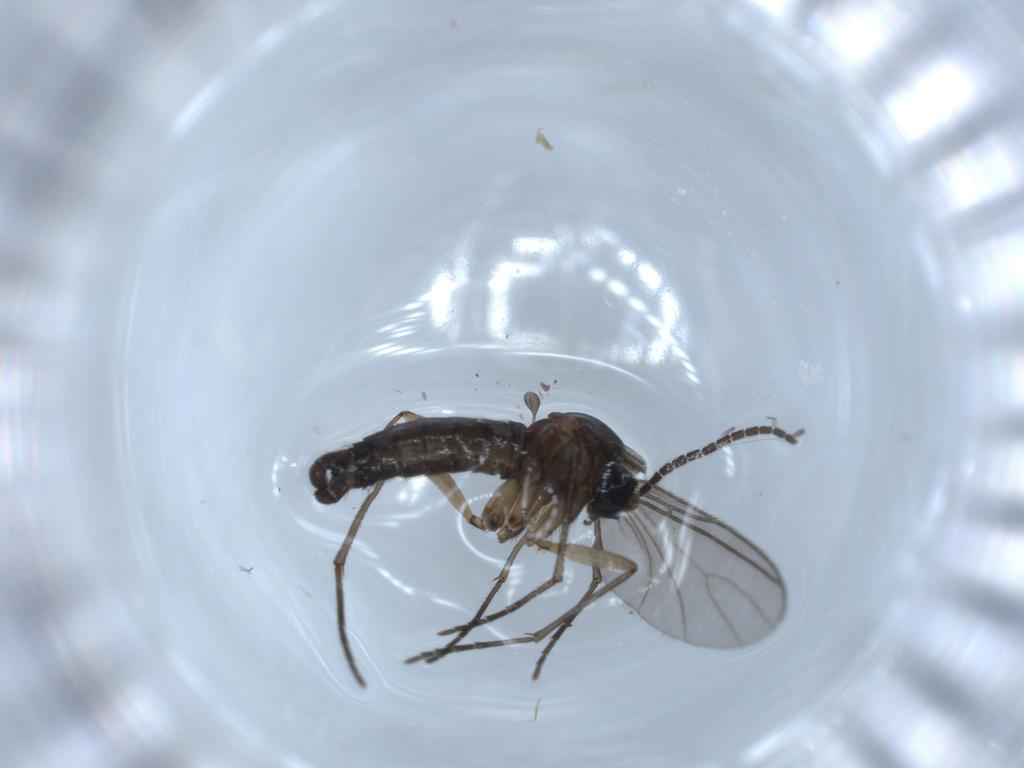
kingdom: Animalia
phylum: Arthropoda
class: Insecta
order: Diptera
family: Sciaridae
